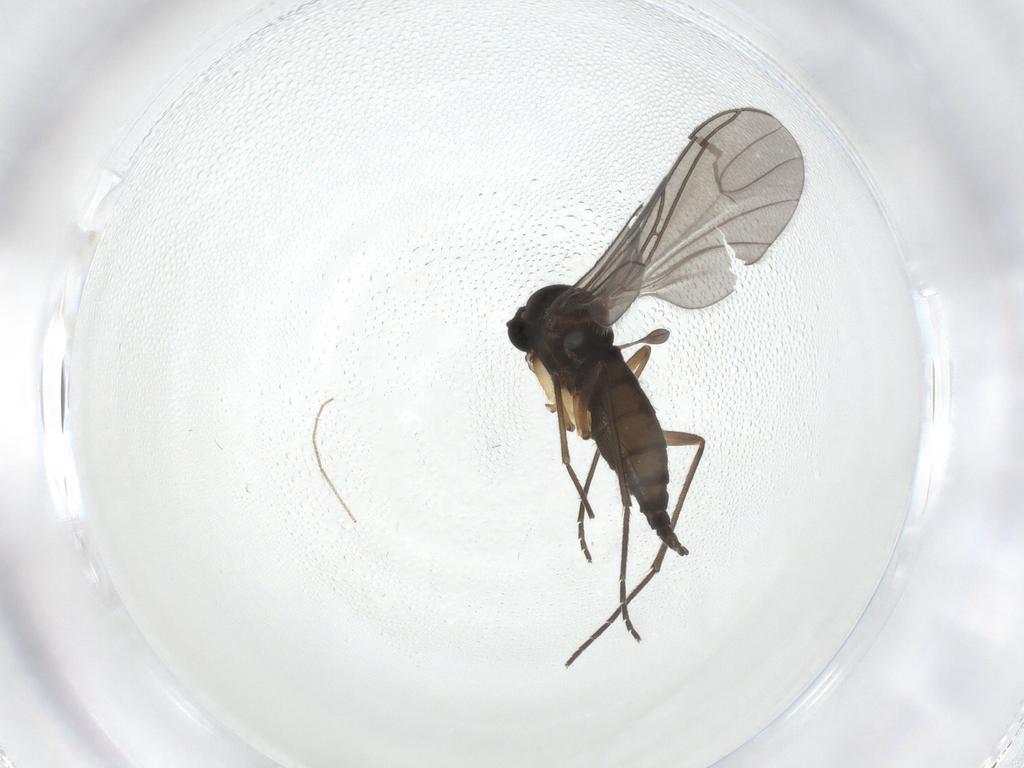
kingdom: Animalia
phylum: Arthropoda
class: Insecta
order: Diptera
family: Sciaridae
